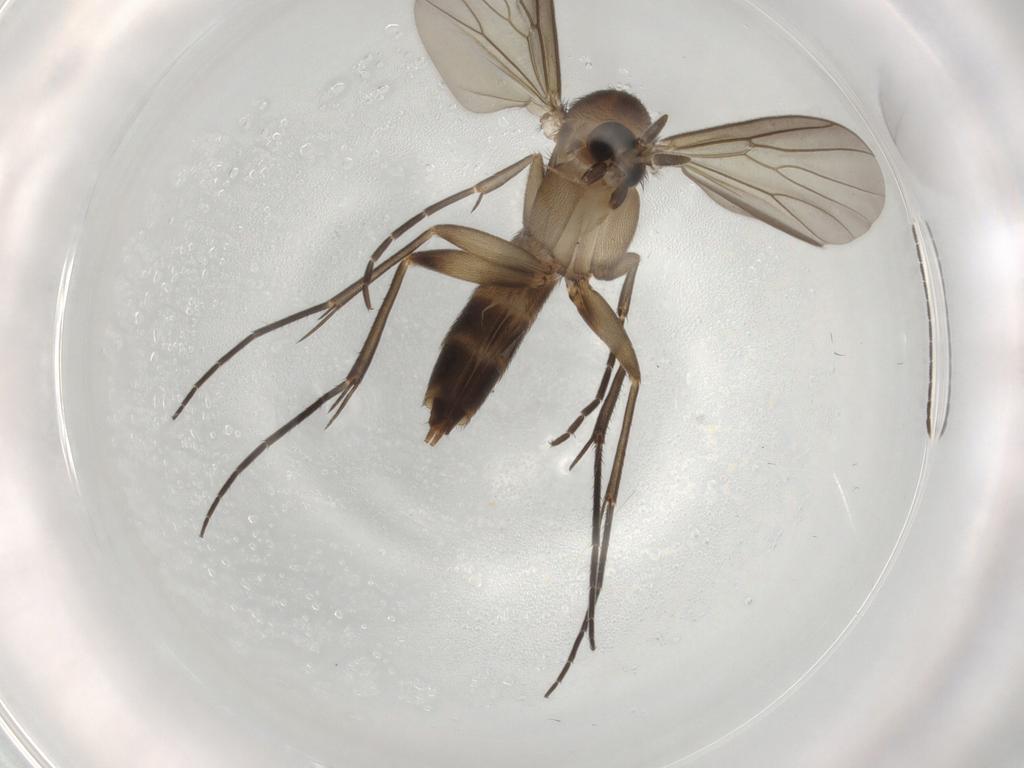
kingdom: Animalia
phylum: Arthropoda
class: Insecta
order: Diptera
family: Mycetophilidae
